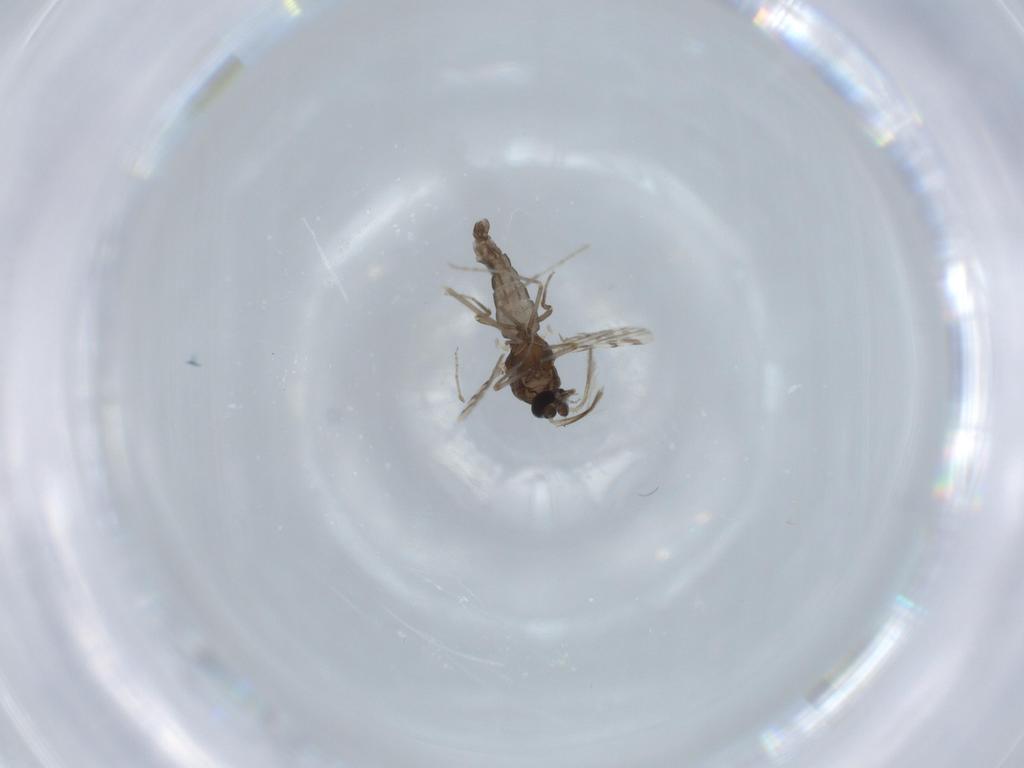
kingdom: Animalia
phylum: Arthropoda
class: Insecta
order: Diptera
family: Chironomidae
